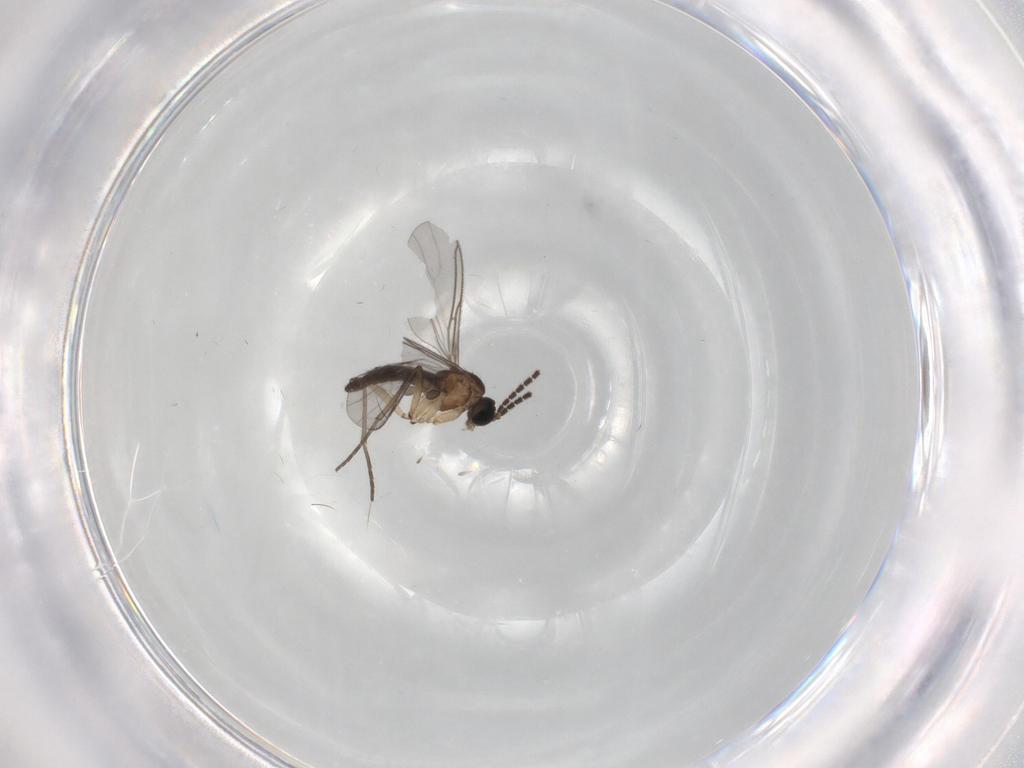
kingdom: Animalia
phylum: Arthropoda
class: Insecta
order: Diptera
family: Sciaridae
